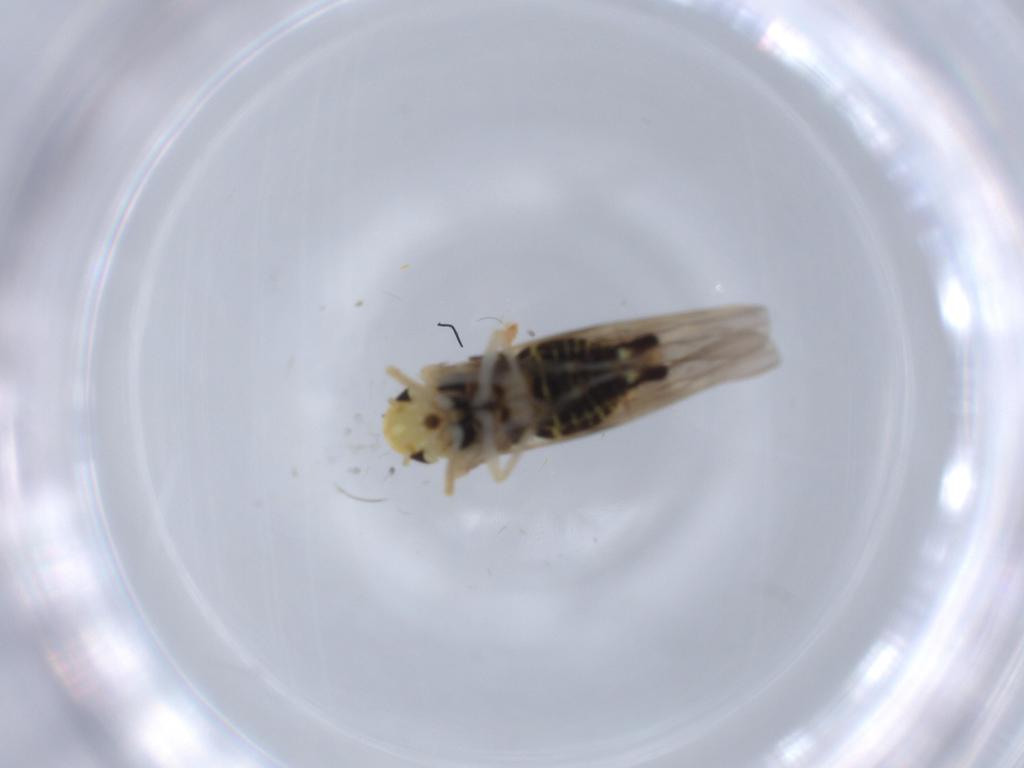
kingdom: Animalia
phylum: Arthropoda
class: Insecta
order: Hemiptera
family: Cicadellidae
